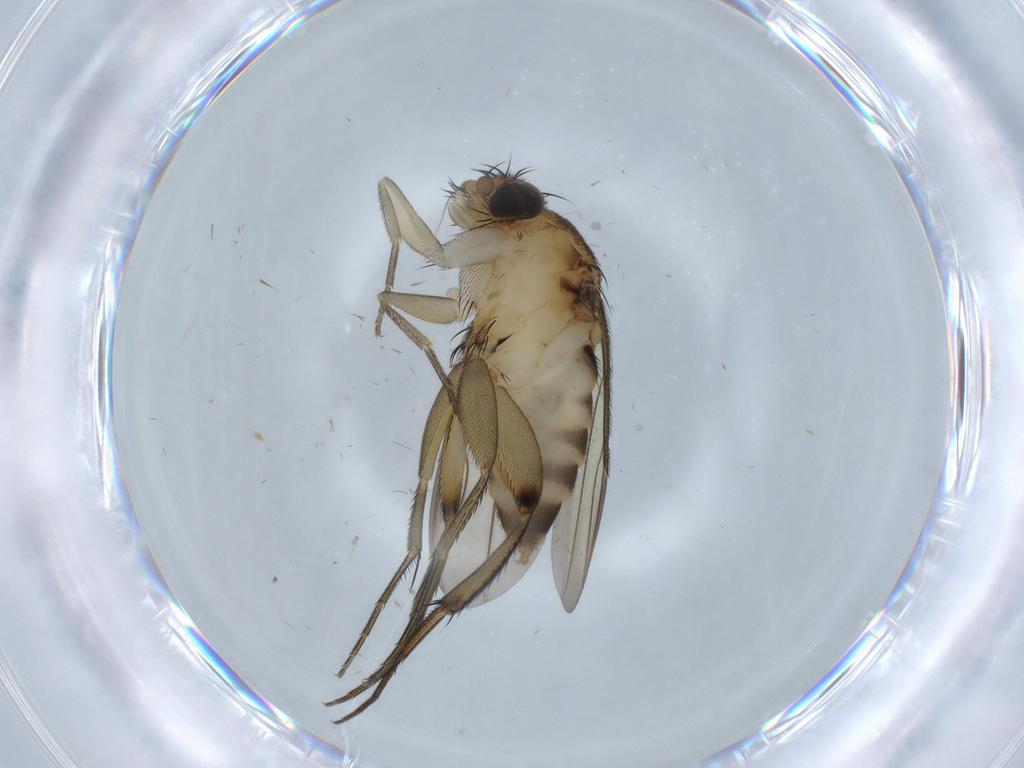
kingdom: Animalia
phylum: Arthropoda
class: Insecta
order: Diptera
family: Sciaridae
